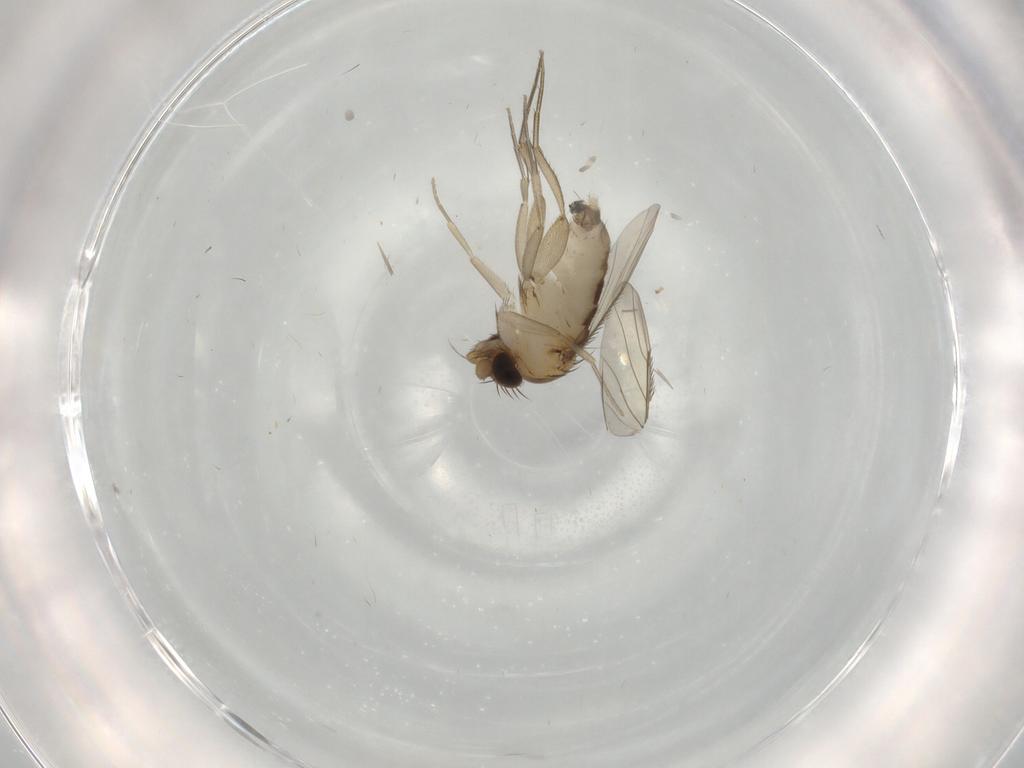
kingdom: Animalia
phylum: Arthropoda
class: Insecta
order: Diptera
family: Phoridae
